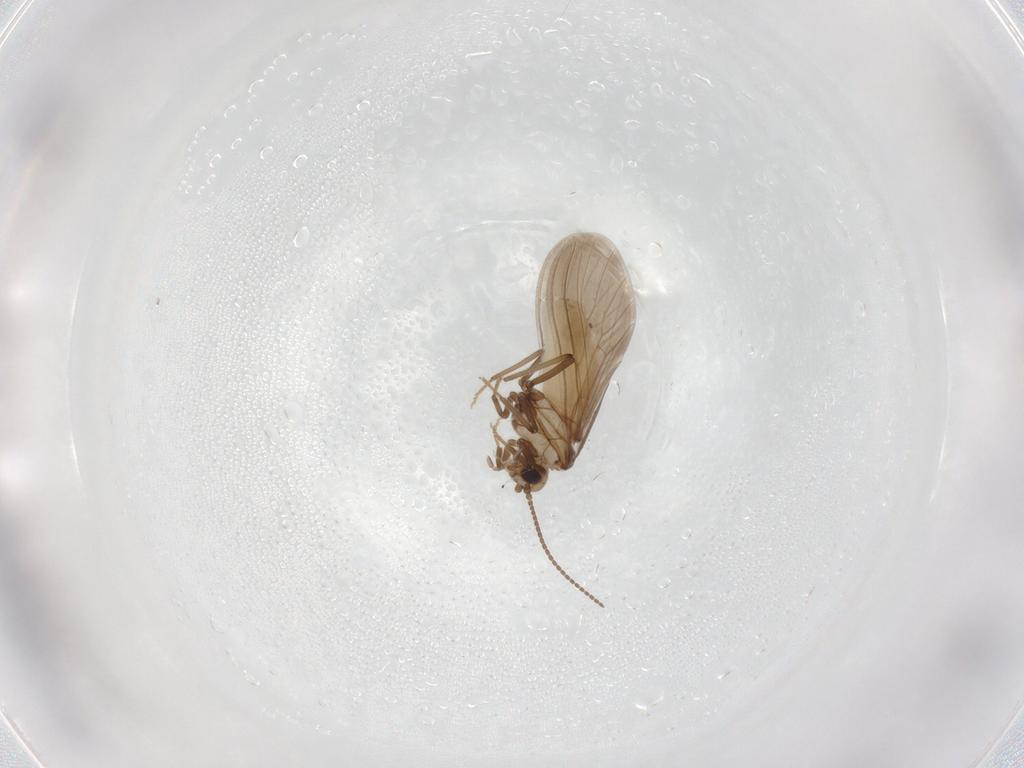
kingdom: Animalia
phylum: Arthropoda
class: Insecta
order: Neuroptera
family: Coniopterygidae
